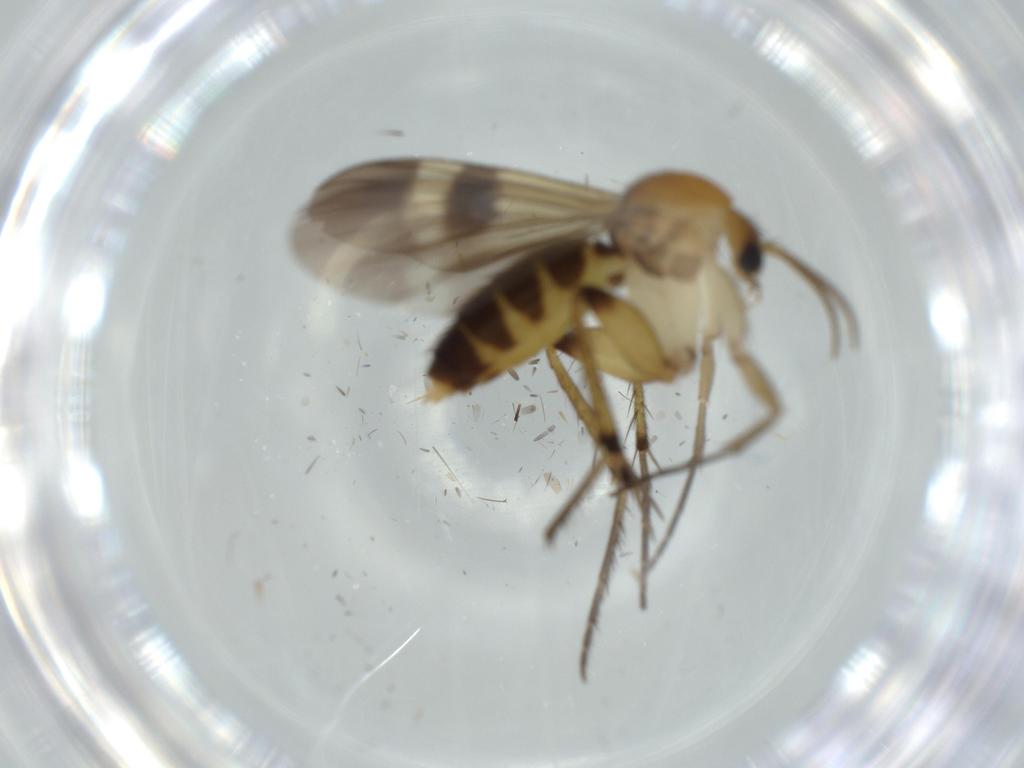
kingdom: Animalia
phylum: Arthropoda
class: Insecta
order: Diptera
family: Mycetophilidae
